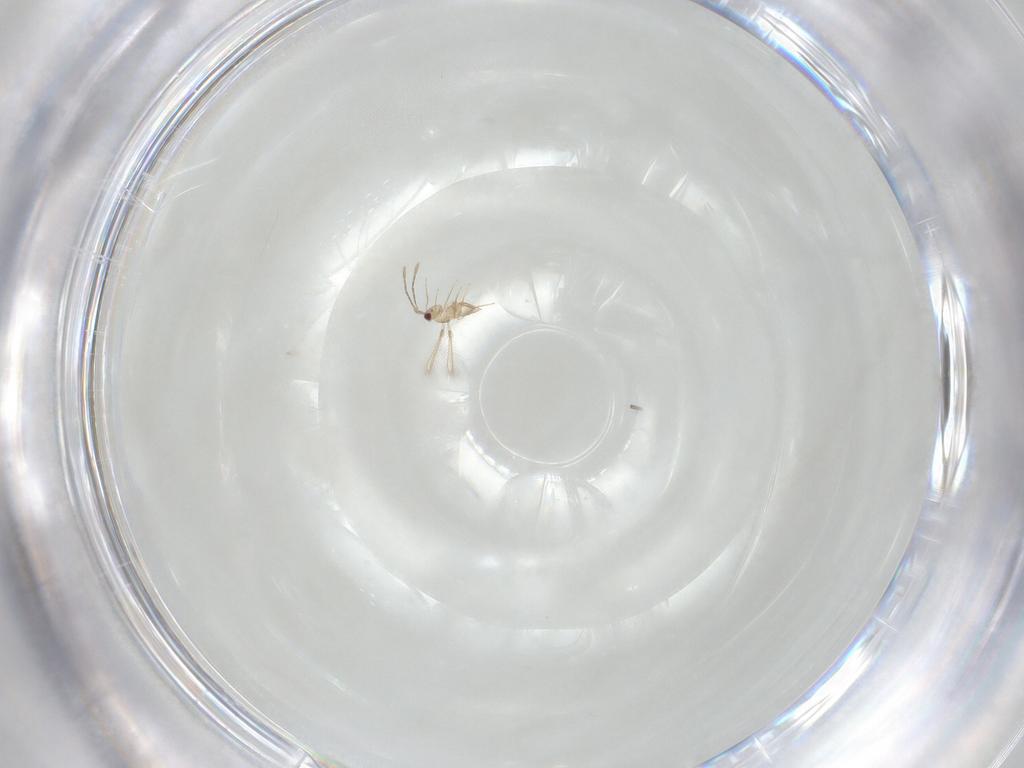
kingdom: Animalia
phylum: Arthropoda
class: Insecta
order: Hymenoptera
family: Mymaridae
